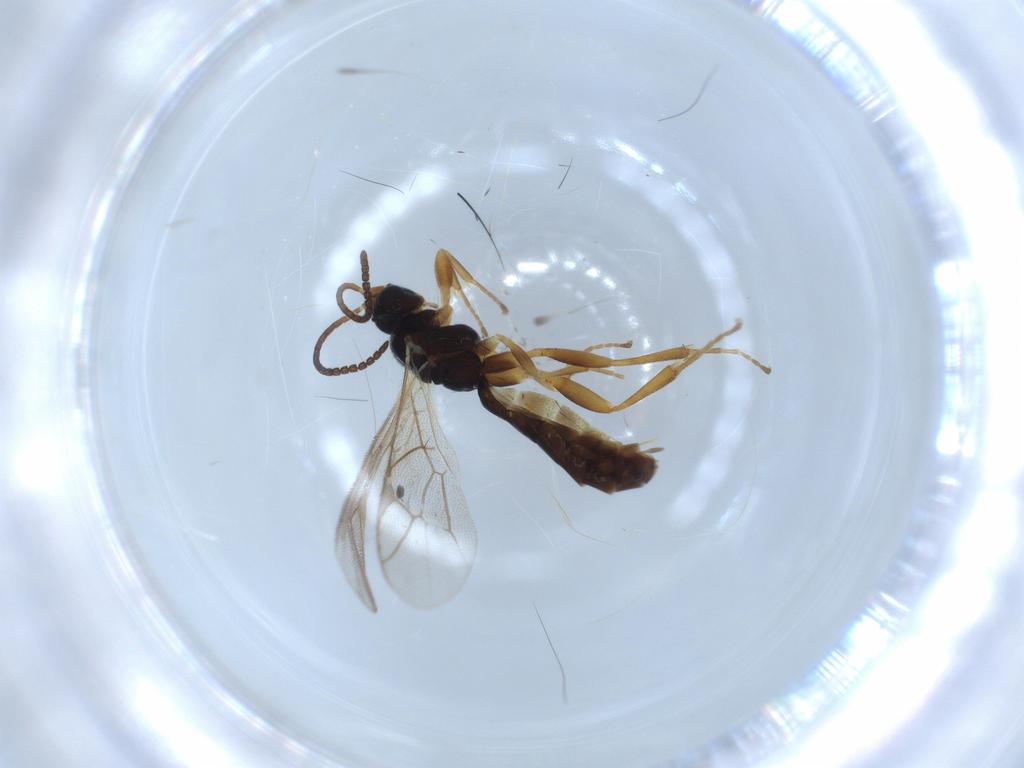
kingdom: Animalia
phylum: Arthropoda
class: Insecta
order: Hymenoptera
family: Ichneumonidae
